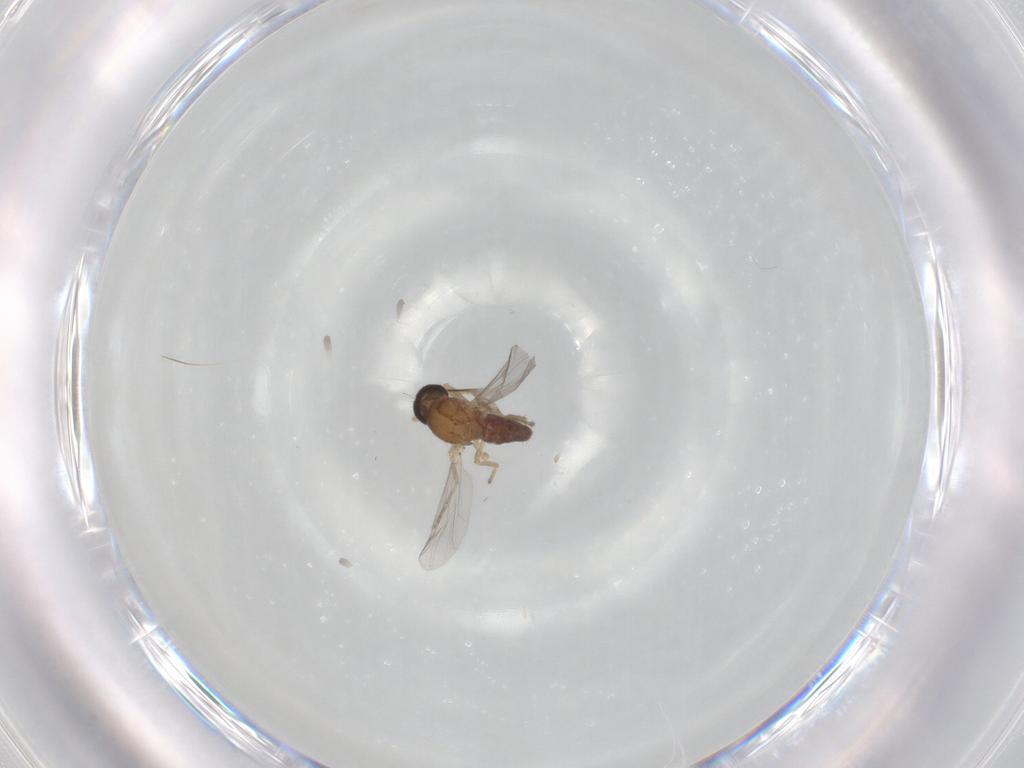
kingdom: Animalia
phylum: Arthropoda
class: Insecta
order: Diptera
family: Ceratopogonidae
